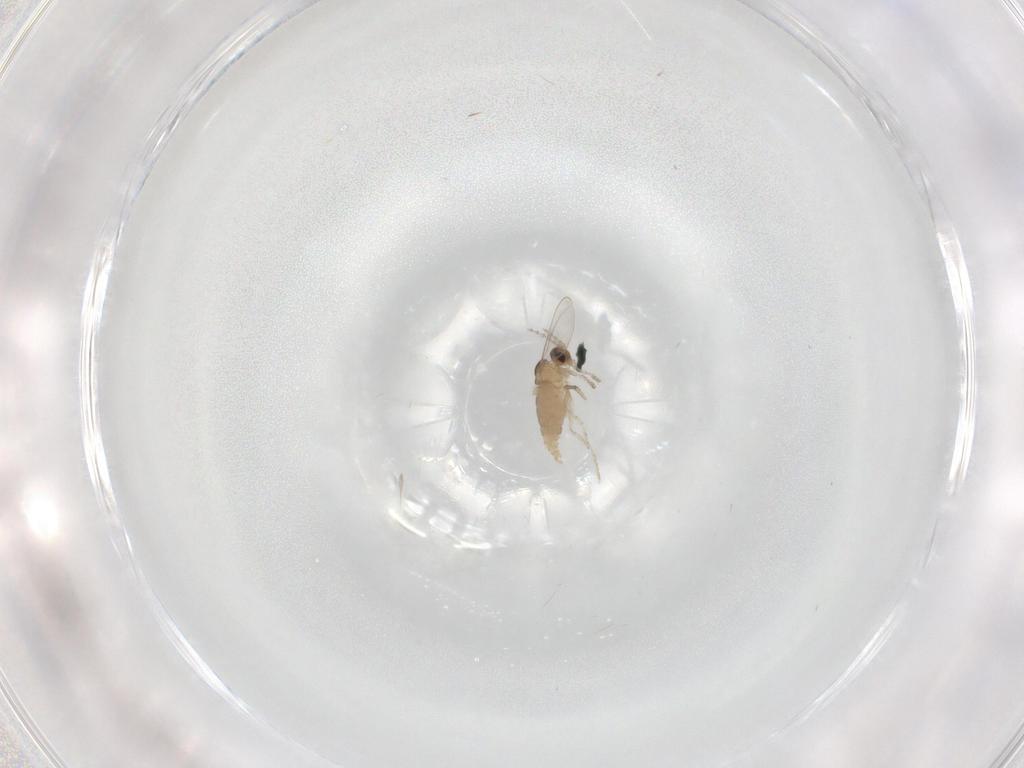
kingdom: Animalia
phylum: Arthropoda
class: Insecta
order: Diptera
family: Cecidomyiidae
